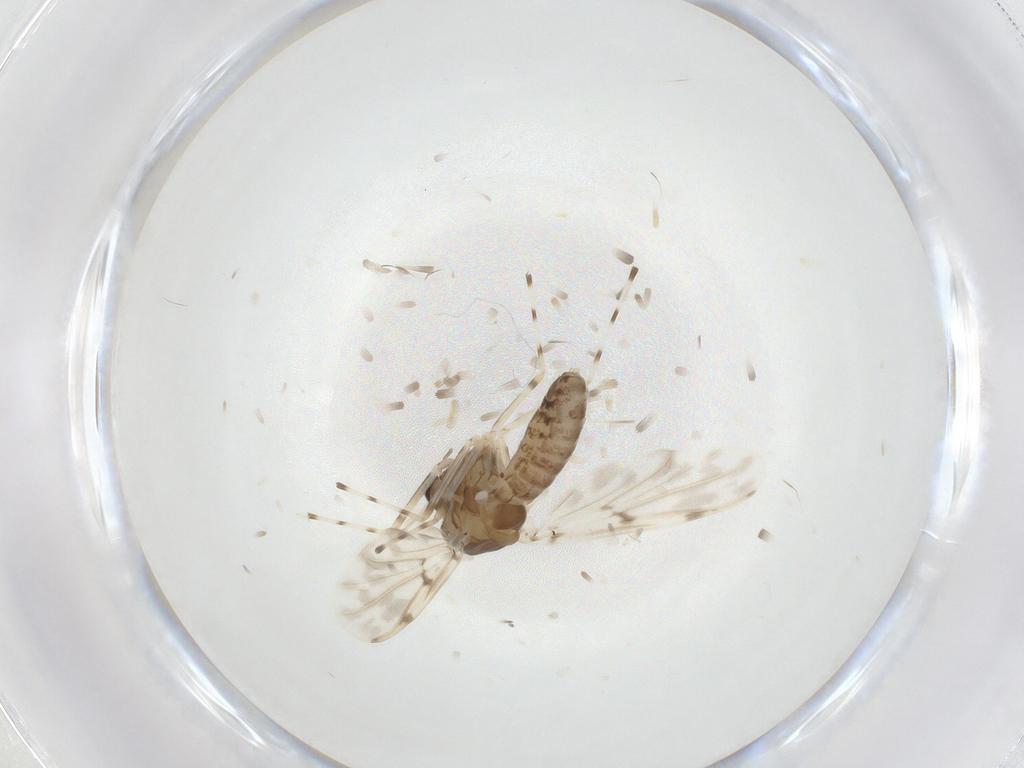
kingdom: Animalia
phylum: Arthropoda
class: Insecta
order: Diptera
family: Chironomidae
